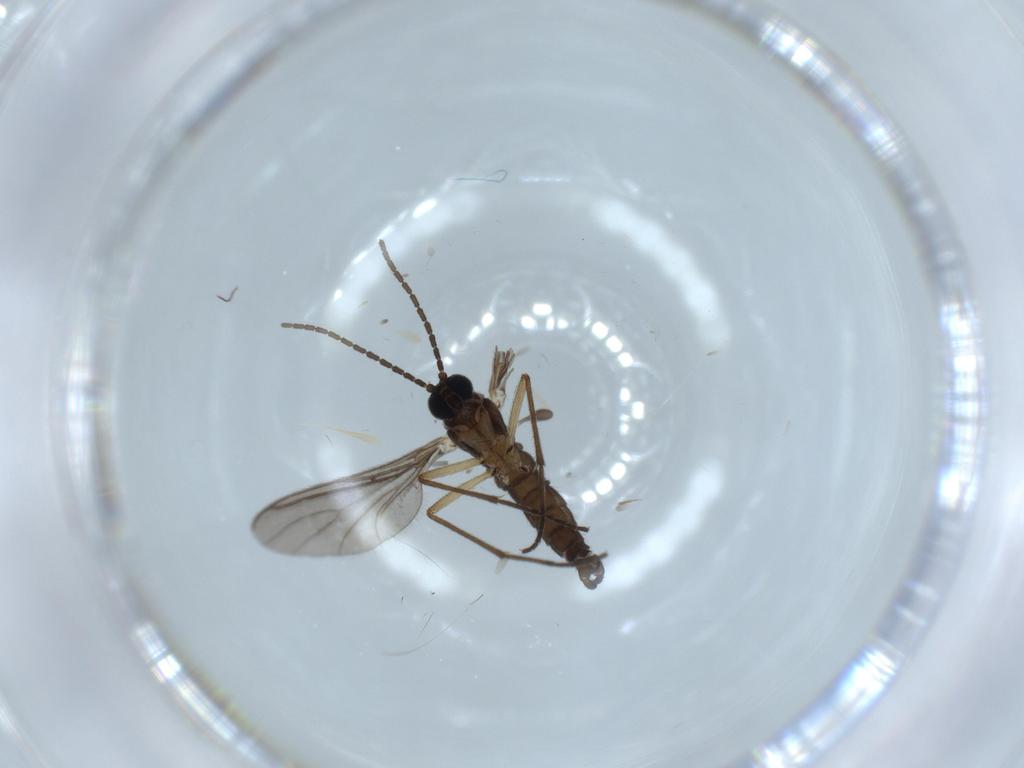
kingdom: Animalia
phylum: Arthropoda
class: Insecta
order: Diptera
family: Sciaridae
